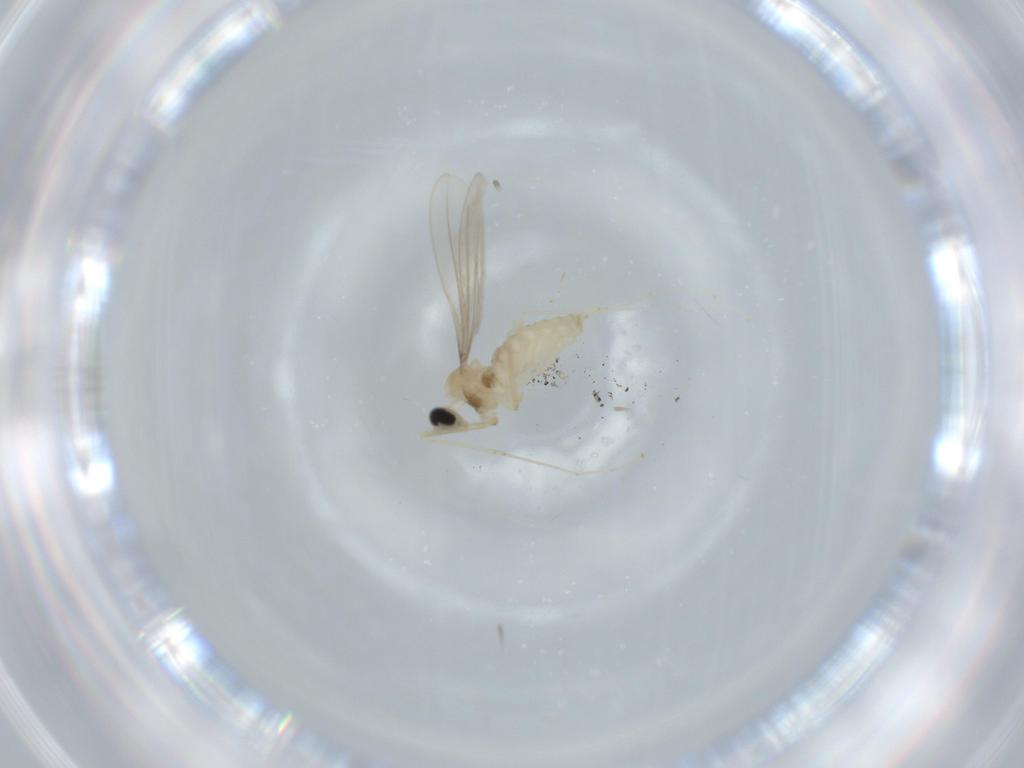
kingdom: Animalia
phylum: Arthropoda
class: Insecta
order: Diptera
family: Cecidomyiidae
